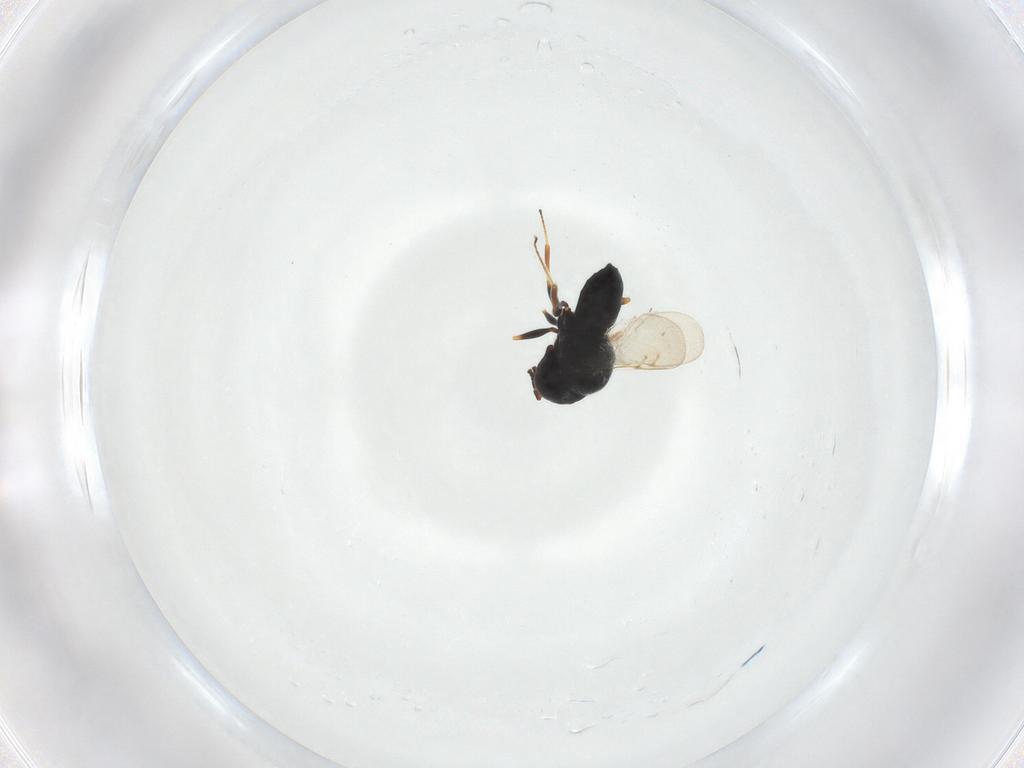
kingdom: Animalia
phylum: Arthropoda
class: Insecta
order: Hymenoptera
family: Scelionidae
